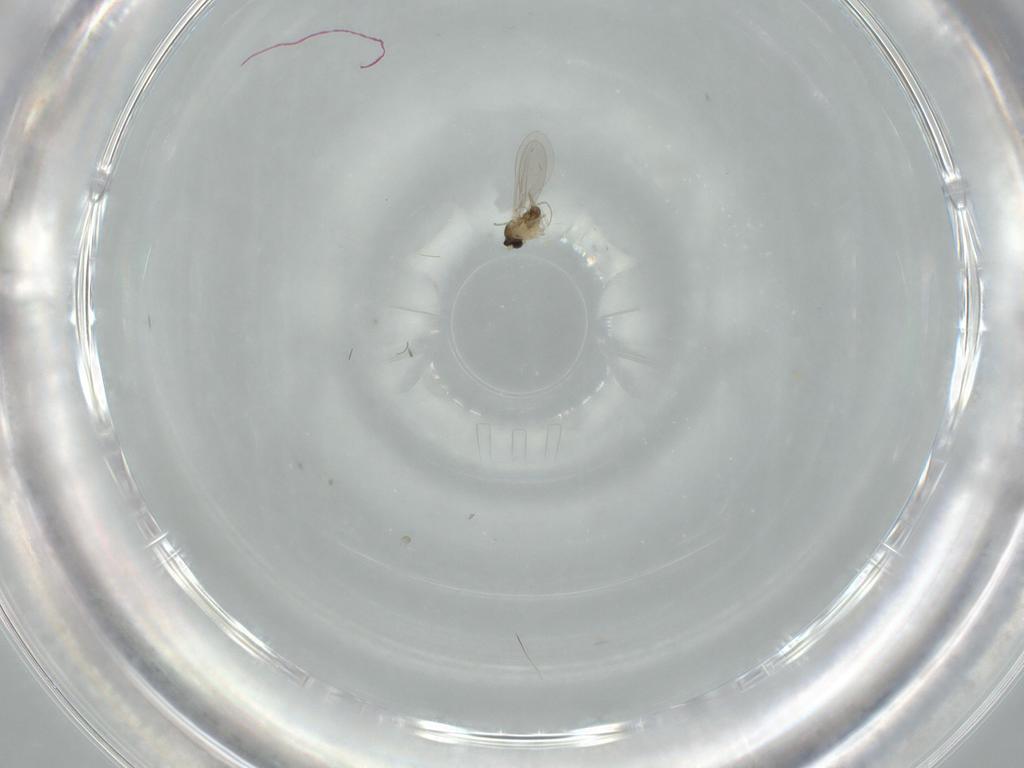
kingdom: Animalia
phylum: Arthropoda
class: Insecta
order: Diptera
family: Cecidomyiidae
